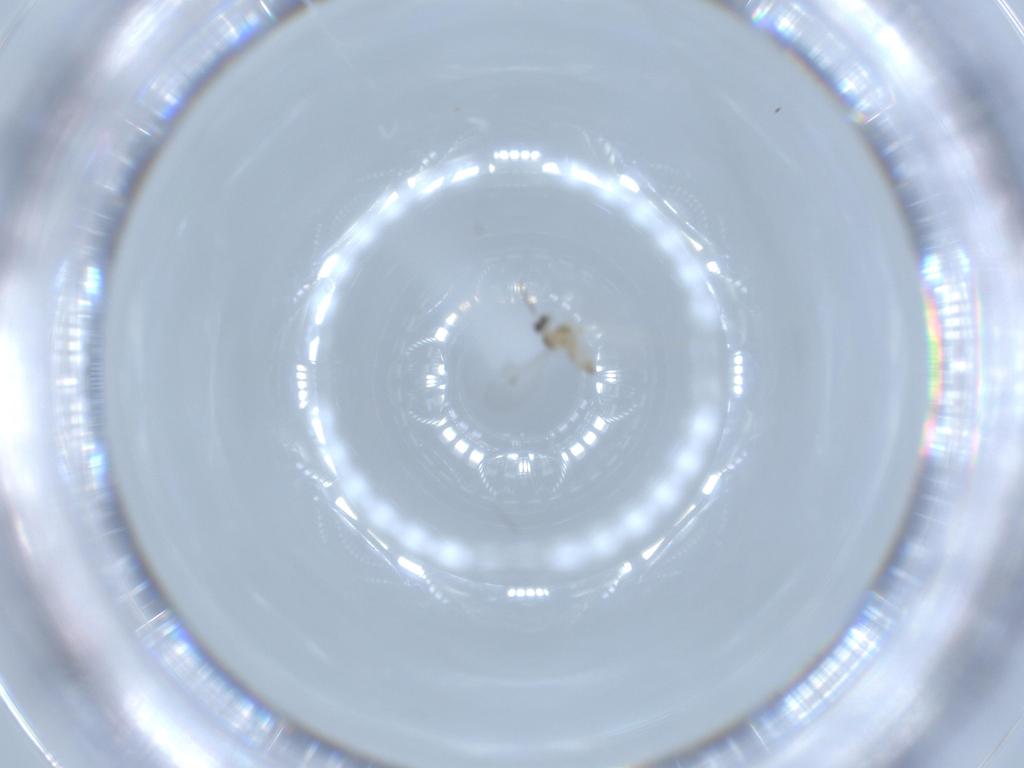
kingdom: Animalia
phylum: Arthropoda
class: Insecta
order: Diptera
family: Cecidomyiidae
